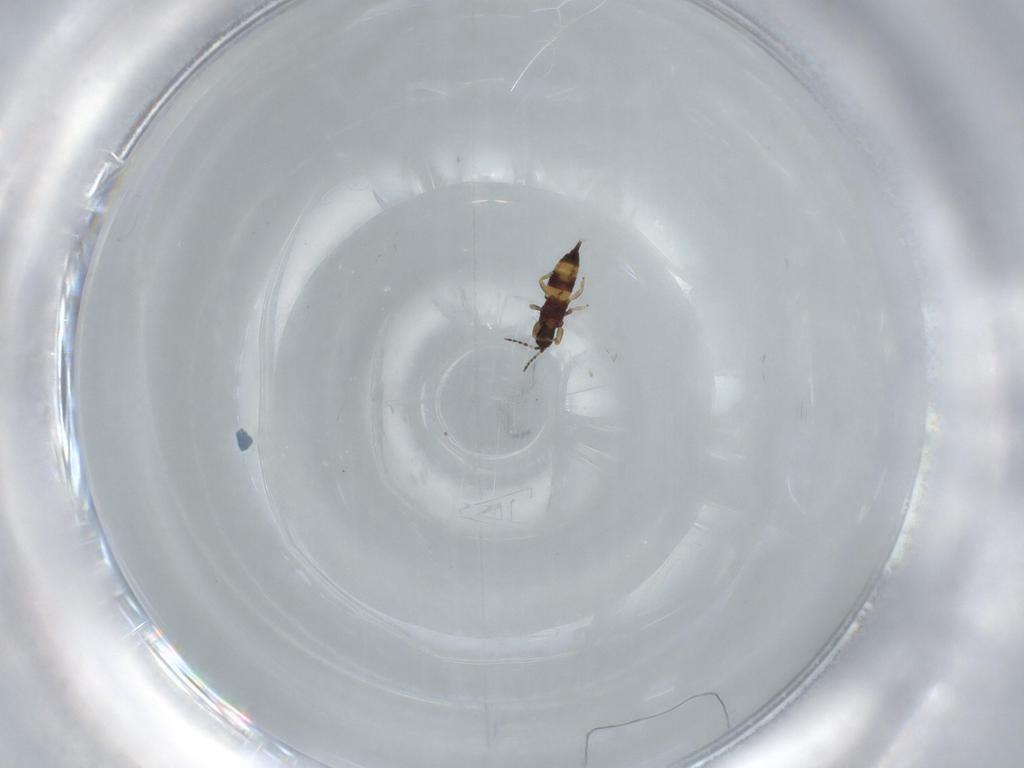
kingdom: Animalia
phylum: Arthropoda
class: Insecta
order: Thysanoptera
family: Phlaeothripidae
